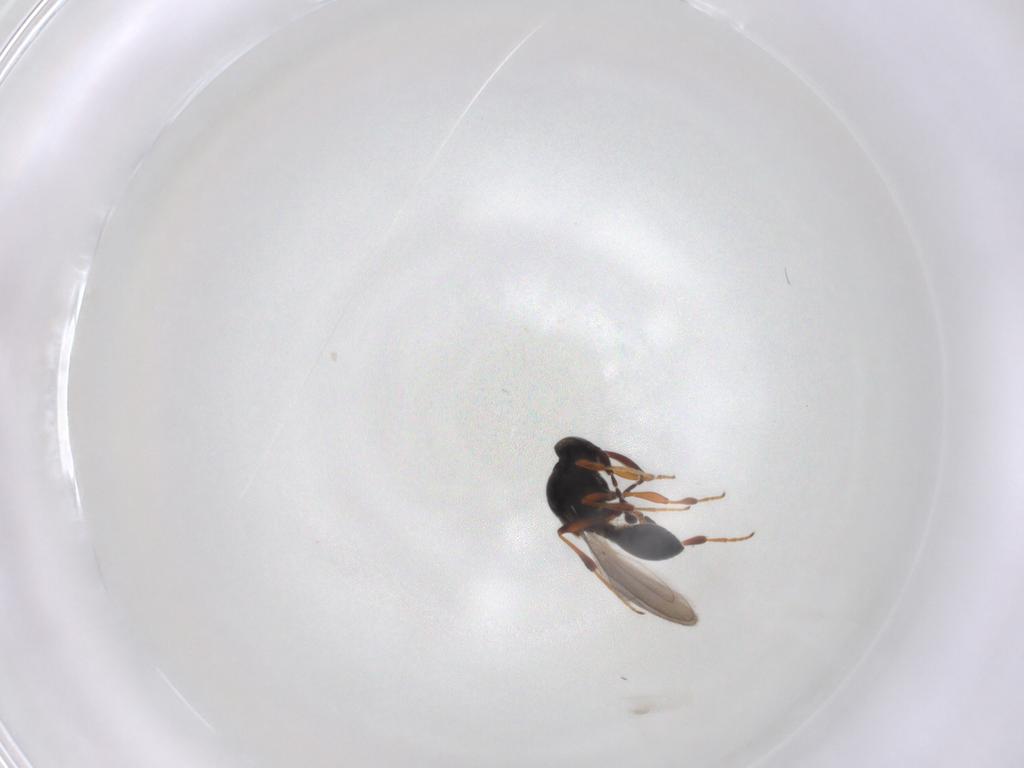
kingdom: Animalia
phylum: Arthropoda
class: Insecta
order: Hymenoptera
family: Platygastridae
